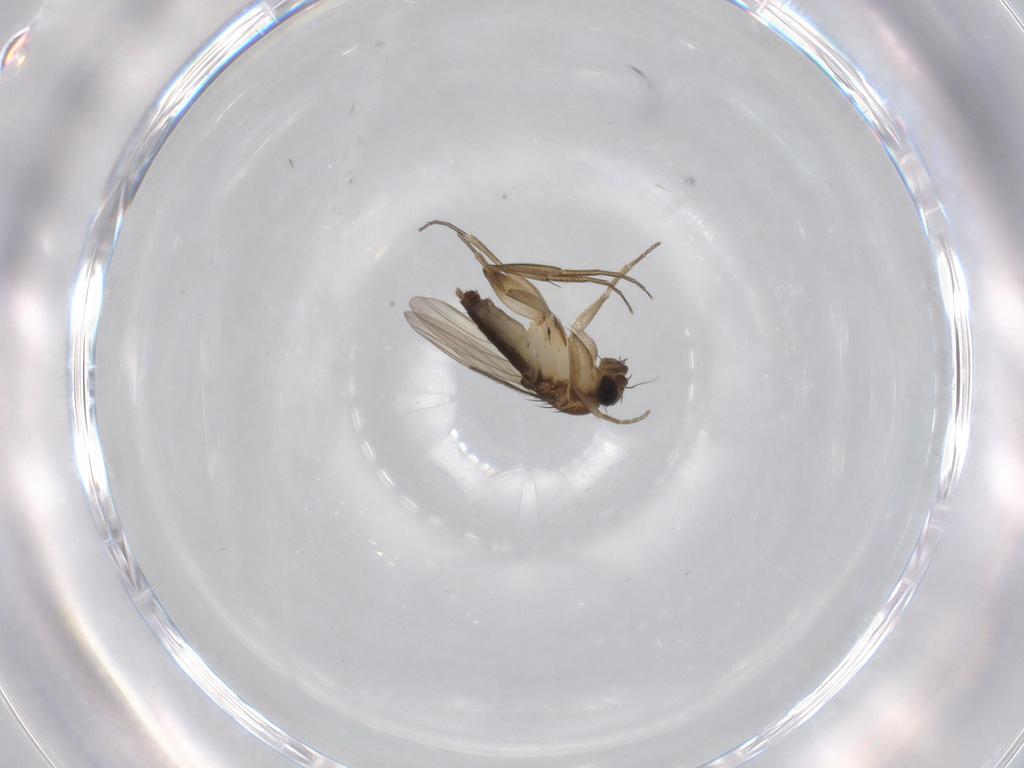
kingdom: Animalia
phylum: Arthropoda
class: Insecta
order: Diptera
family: Phoridae
